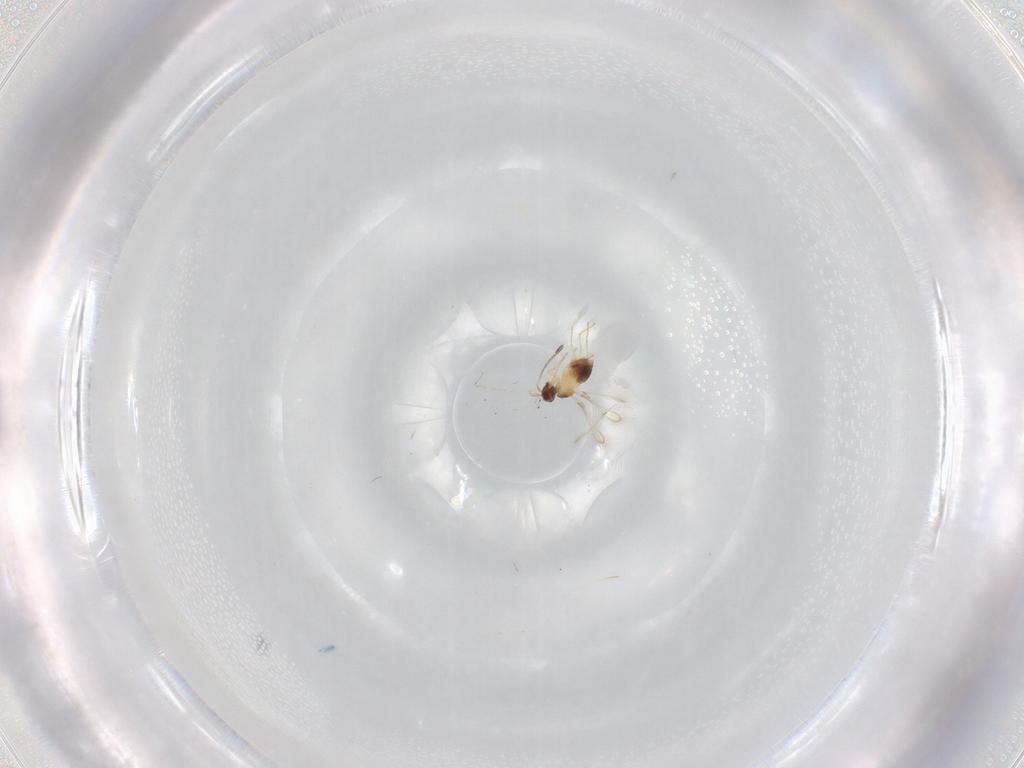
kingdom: Animalia
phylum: Arthropoda
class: Insecta
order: Hymenoptera
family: Mymaridae
